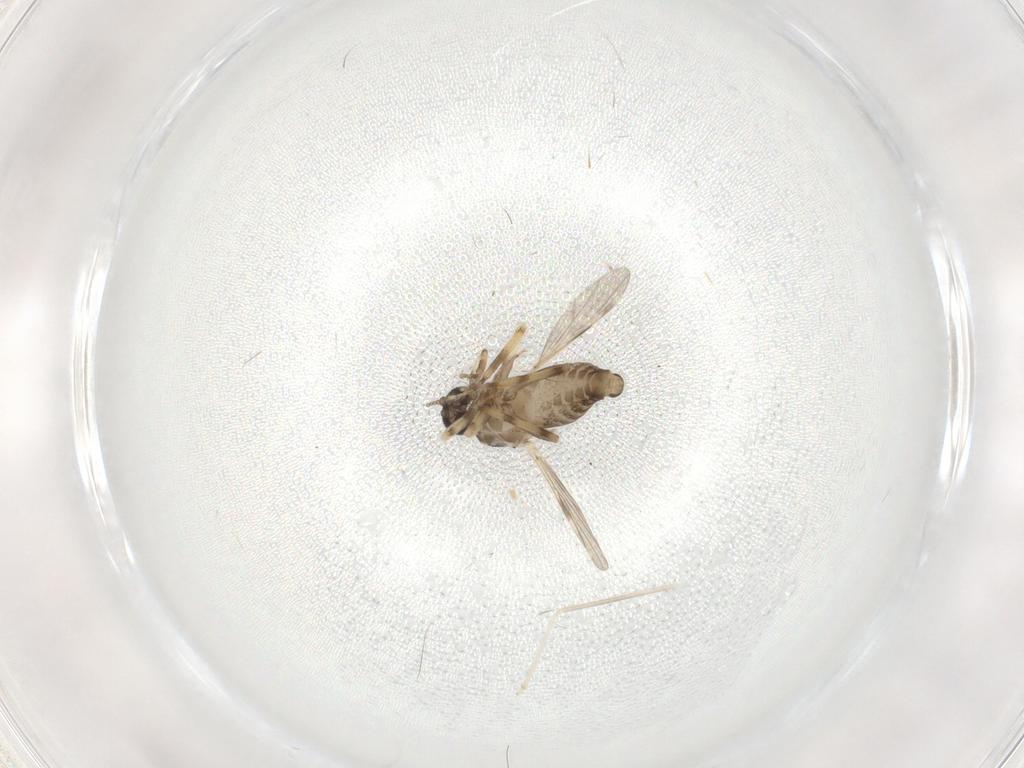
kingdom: Animalia
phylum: Arthropoda
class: Insecta
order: Diptera
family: Ceratopogonidae
